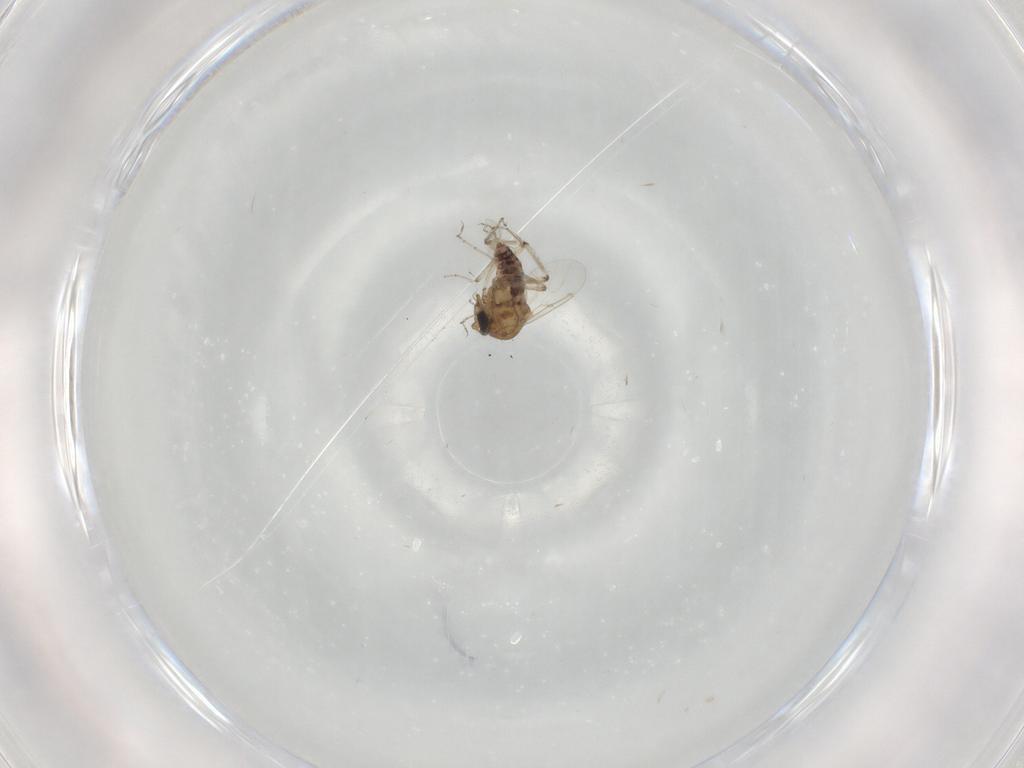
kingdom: Animalia
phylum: Arthropoda
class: Insecta
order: Diptera
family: Ceratopogonidae
